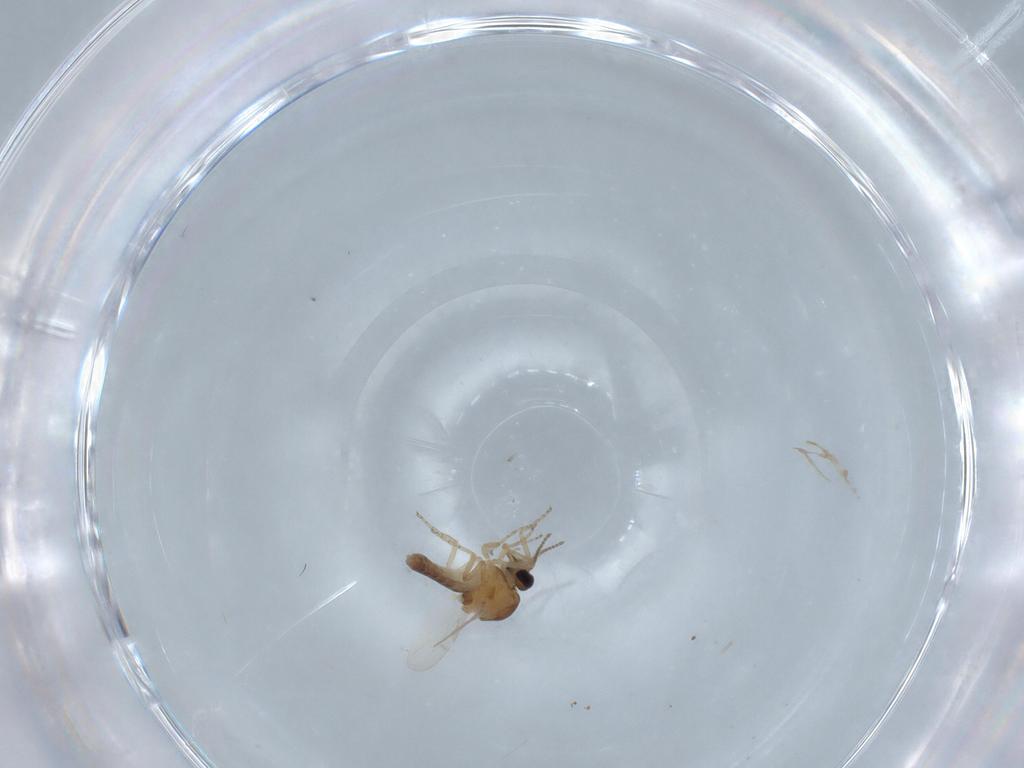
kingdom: Animalia
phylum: Arthropoda
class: Insecta
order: Diptera
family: Ceratopogonidae
